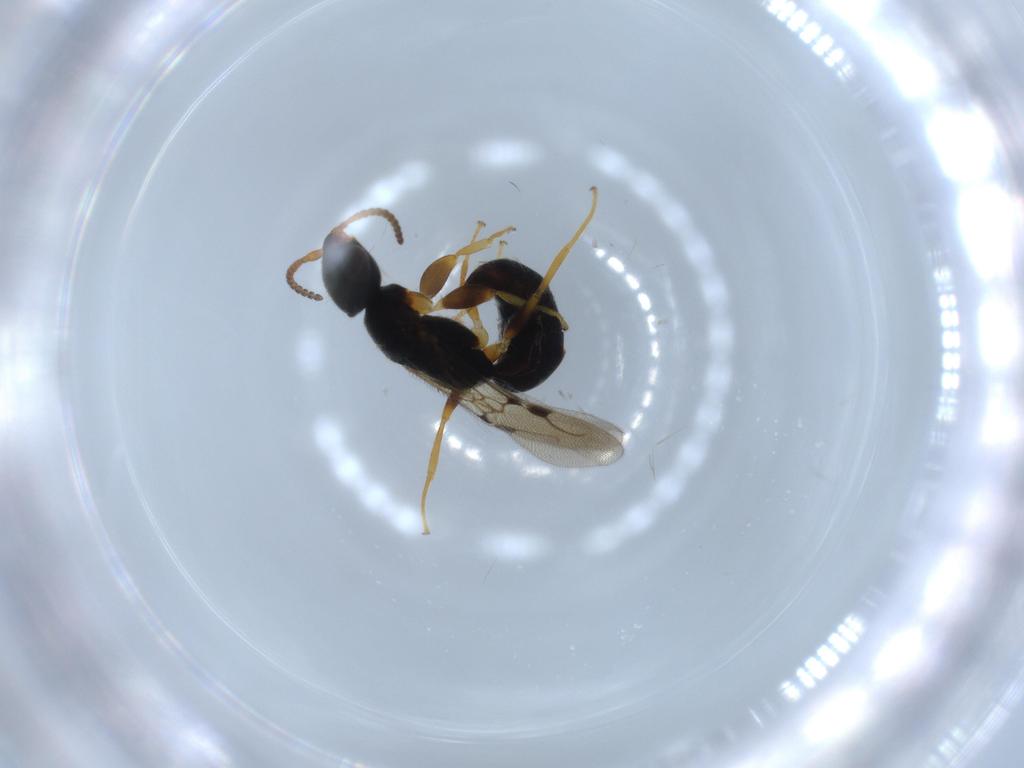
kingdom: Animalia
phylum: Arthropoda
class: Insecta
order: Hymenoptera
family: Bethylidae
